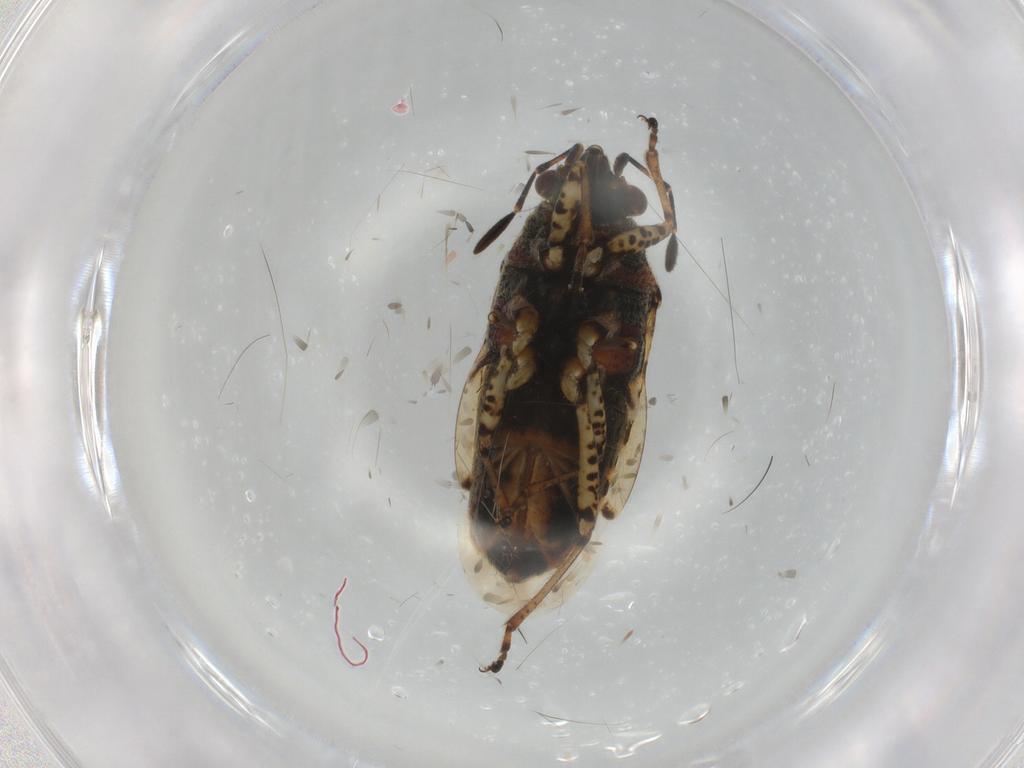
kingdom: Animalia
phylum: Arthropoda
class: Insecta
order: Hemiptera
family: Lygaeidae
